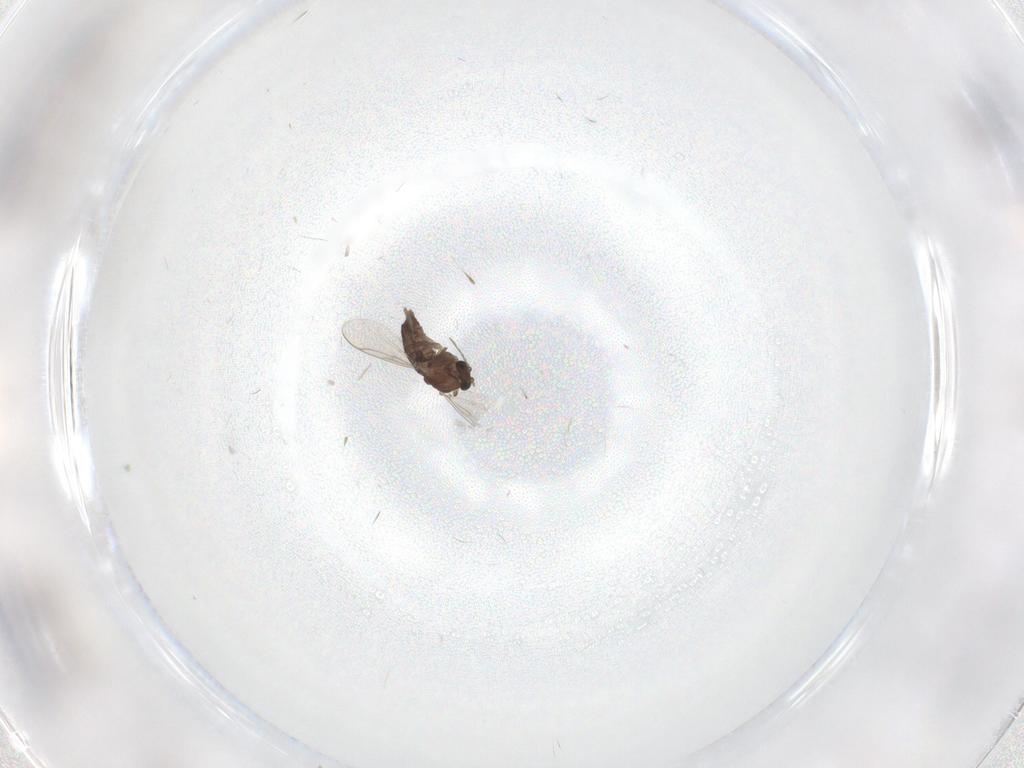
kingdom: Animalia
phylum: Arthropoda
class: Insecta
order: Diptera
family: Chironomidae
